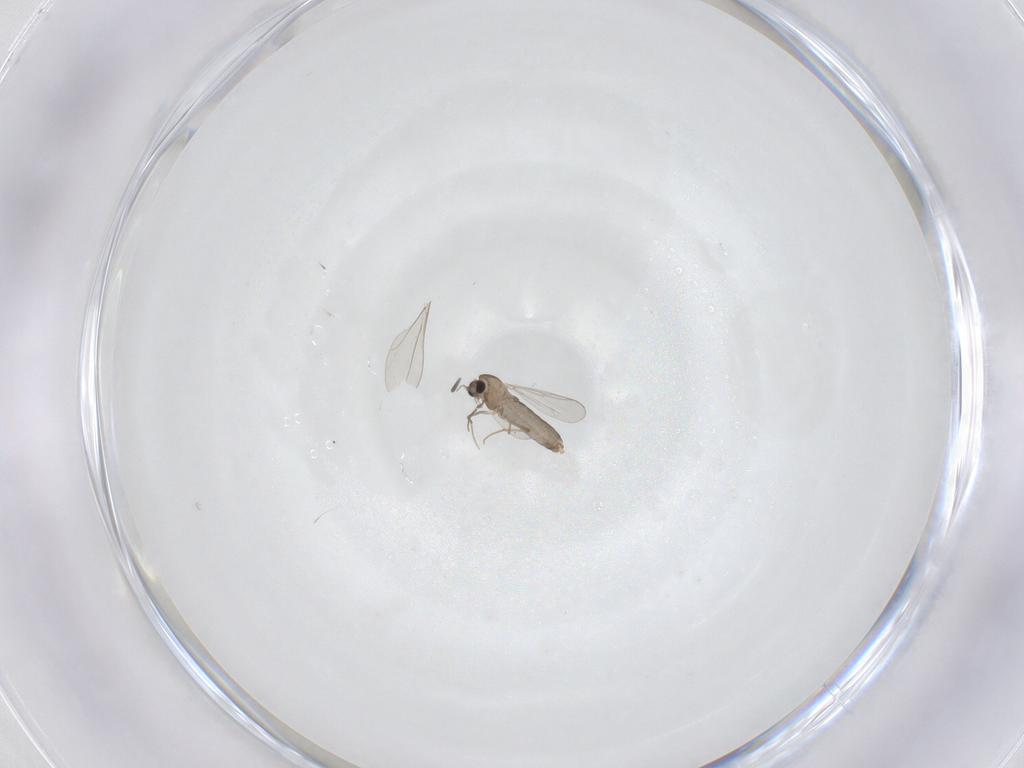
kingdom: Animalia
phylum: Arthropoda
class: Insecta
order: Diptera
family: Chironomidae
